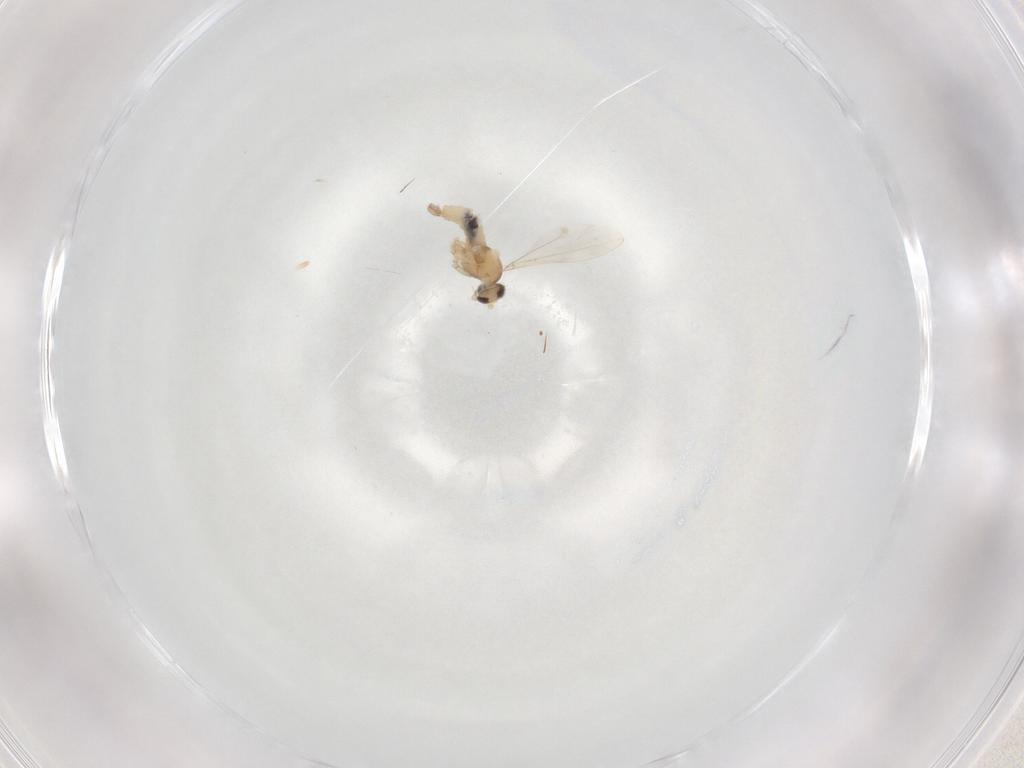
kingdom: Animalia
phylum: Arthropoda
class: Insecta
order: Diptera
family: Cecidomyiidae
